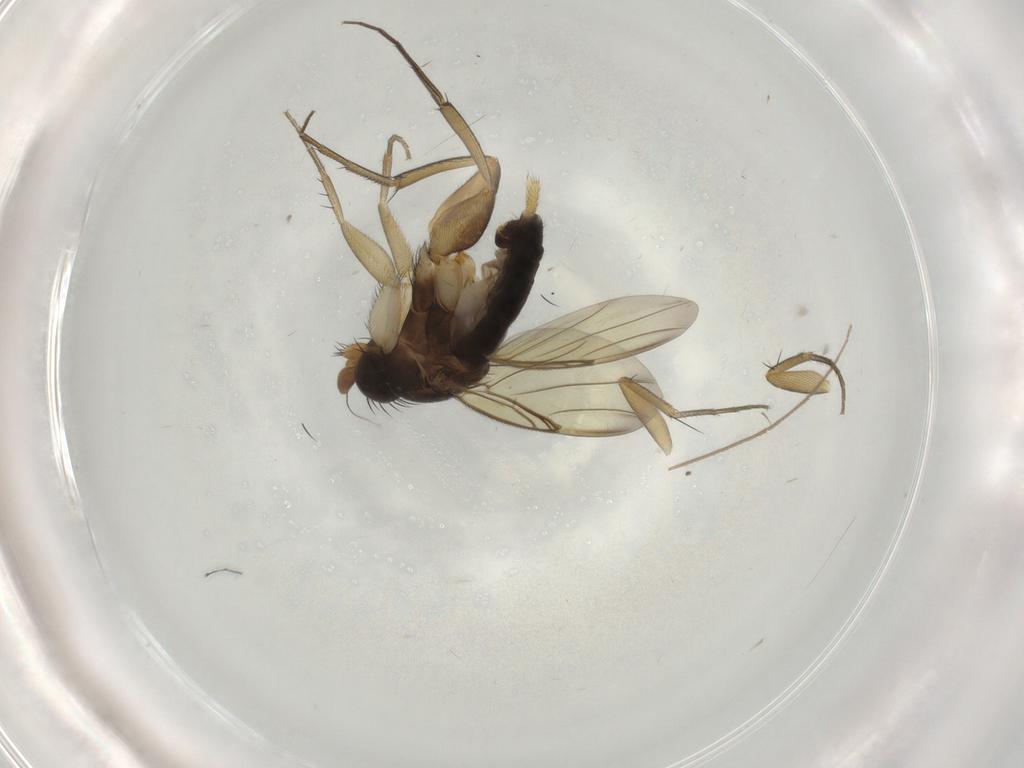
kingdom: Animalia
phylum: Arthropoda
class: Insecta
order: Diptera
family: Phoridae
